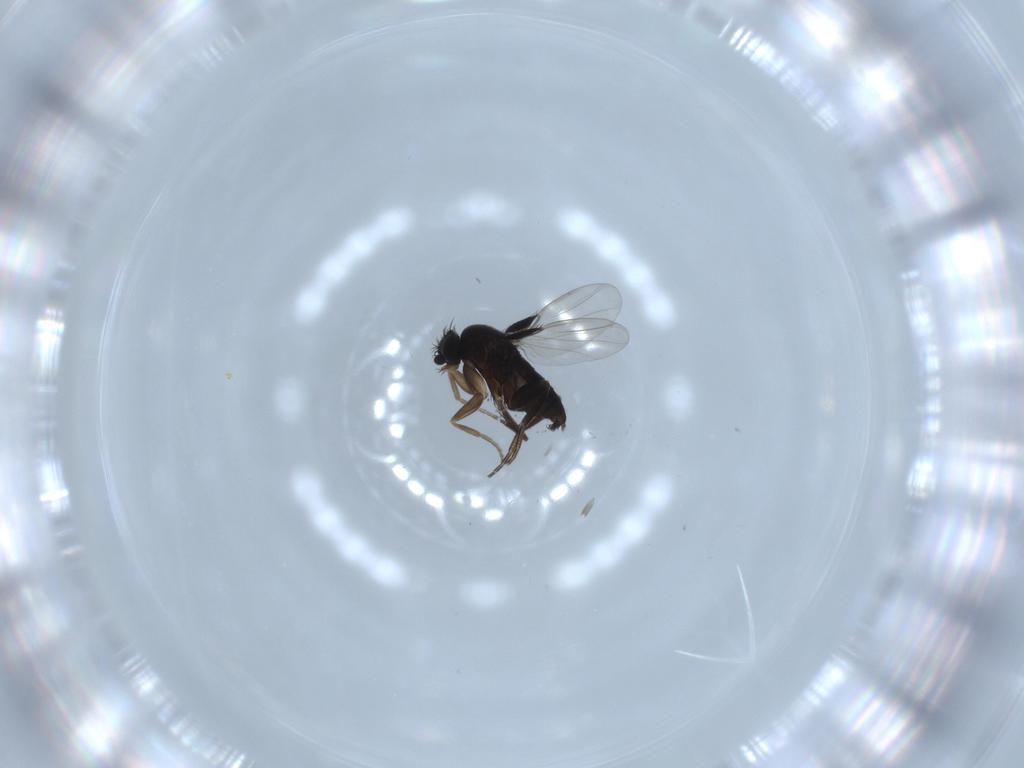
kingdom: Animalia
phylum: Arthropoda
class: Insecta
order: Diptera
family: Phoridae
